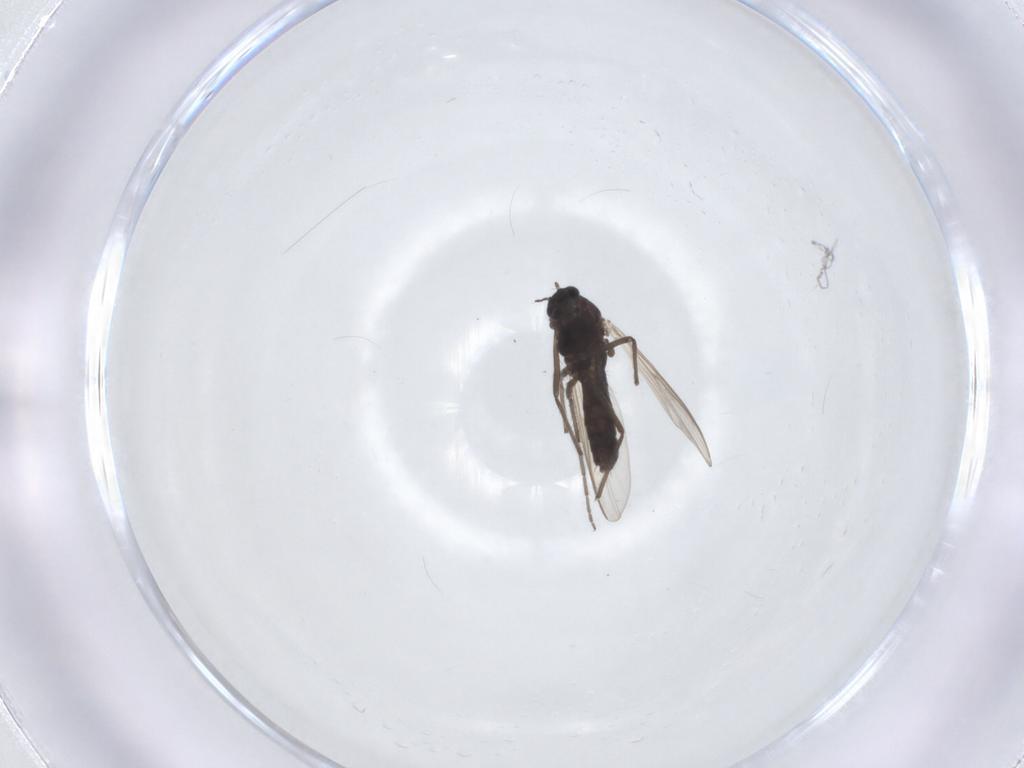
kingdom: Animalia
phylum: Arthropoda
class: Insecta
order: Diptera
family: Chironomidae
